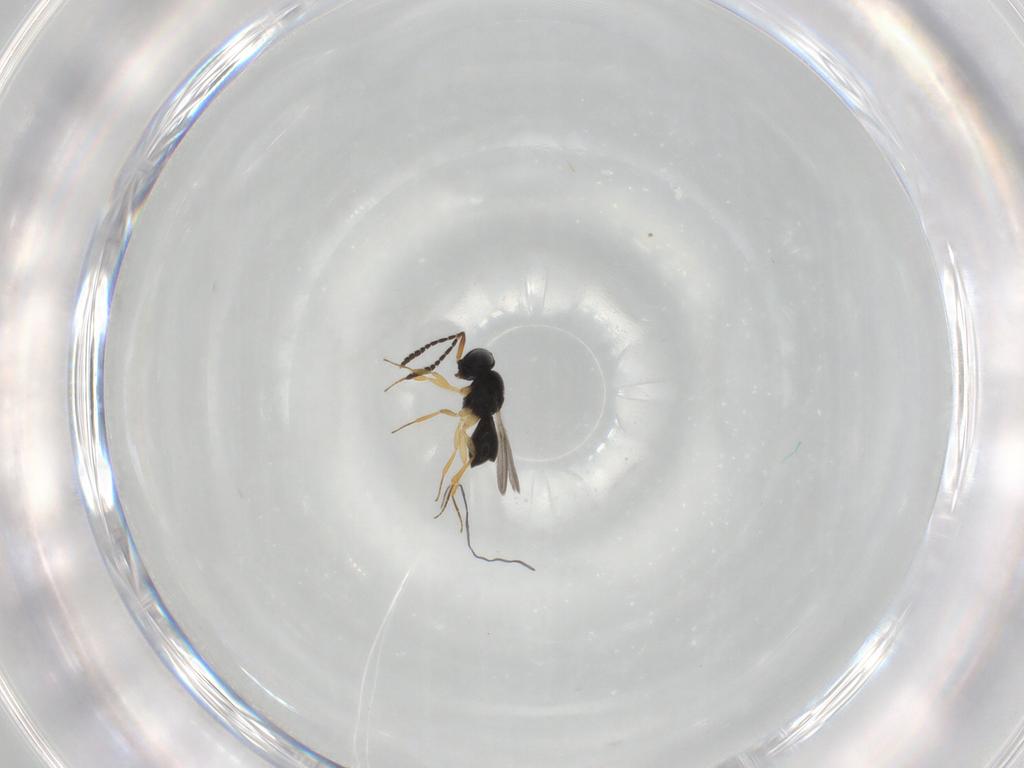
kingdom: Animalia
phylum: Arthropoda
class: Insecta
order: Hymenoptera
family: Scelionidae
